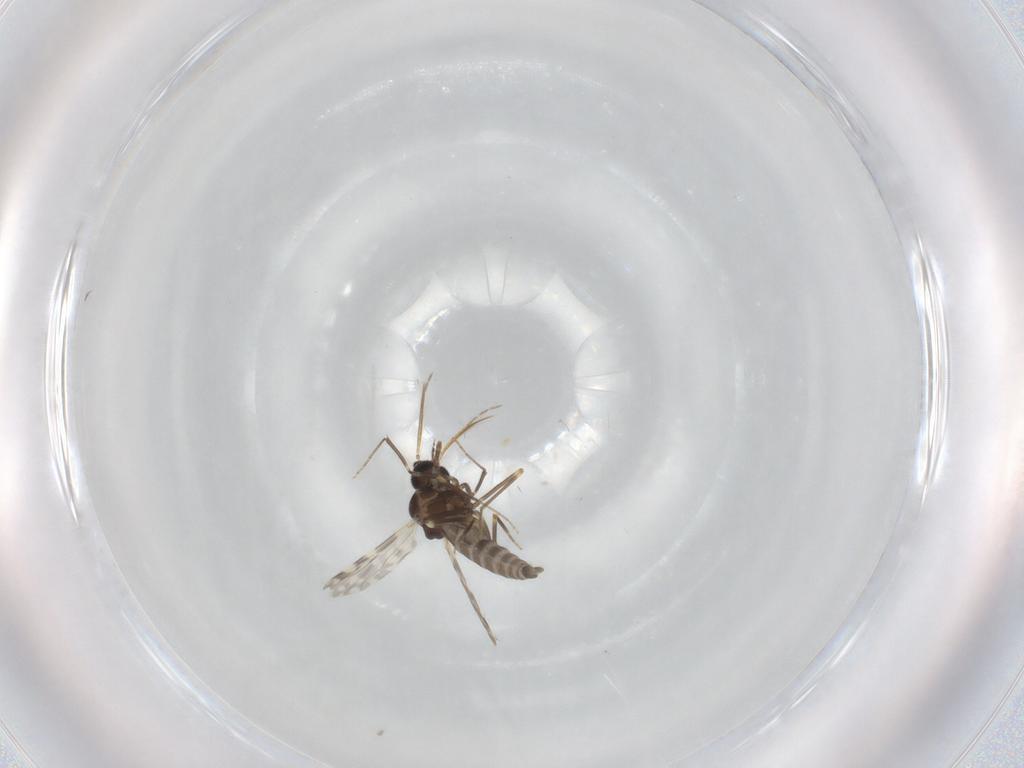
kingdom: Animalia
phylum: Arthropoda
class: Insecta
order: Diptera
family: Ceratopogonidae
